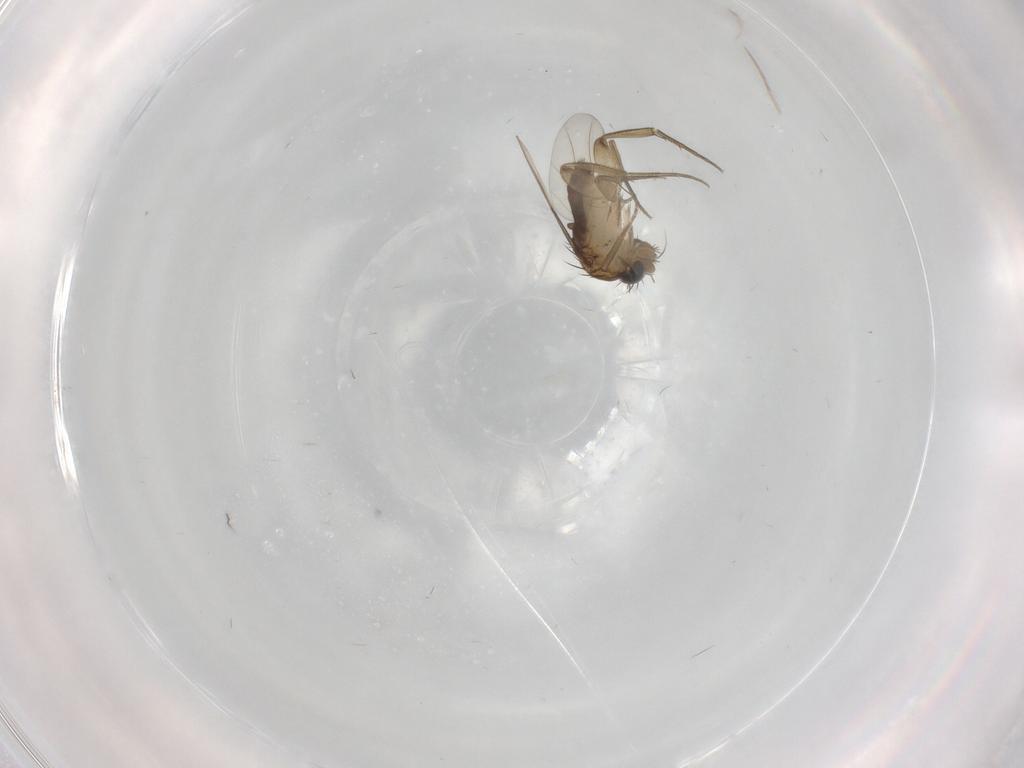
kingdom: Animalia
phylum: Arthropoda
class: Insecta
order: Diptera
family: Phoridae
